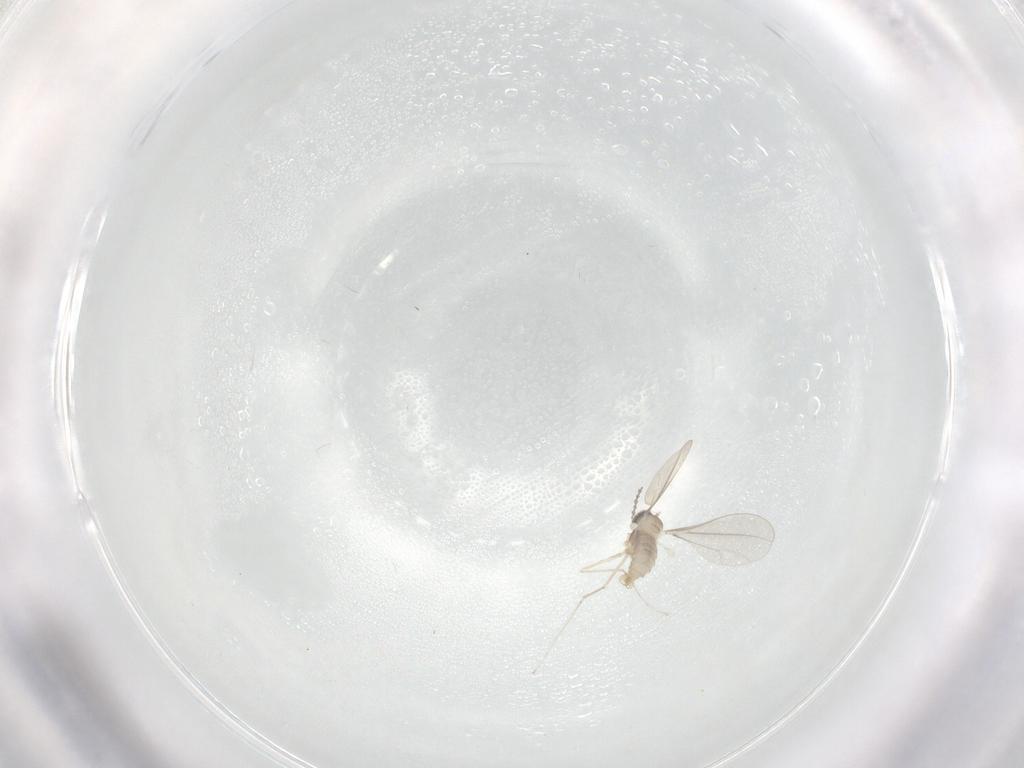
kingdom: Animalia
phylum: Arthropoda
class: Insecta
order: Diptera
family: Cecidomyiidae
